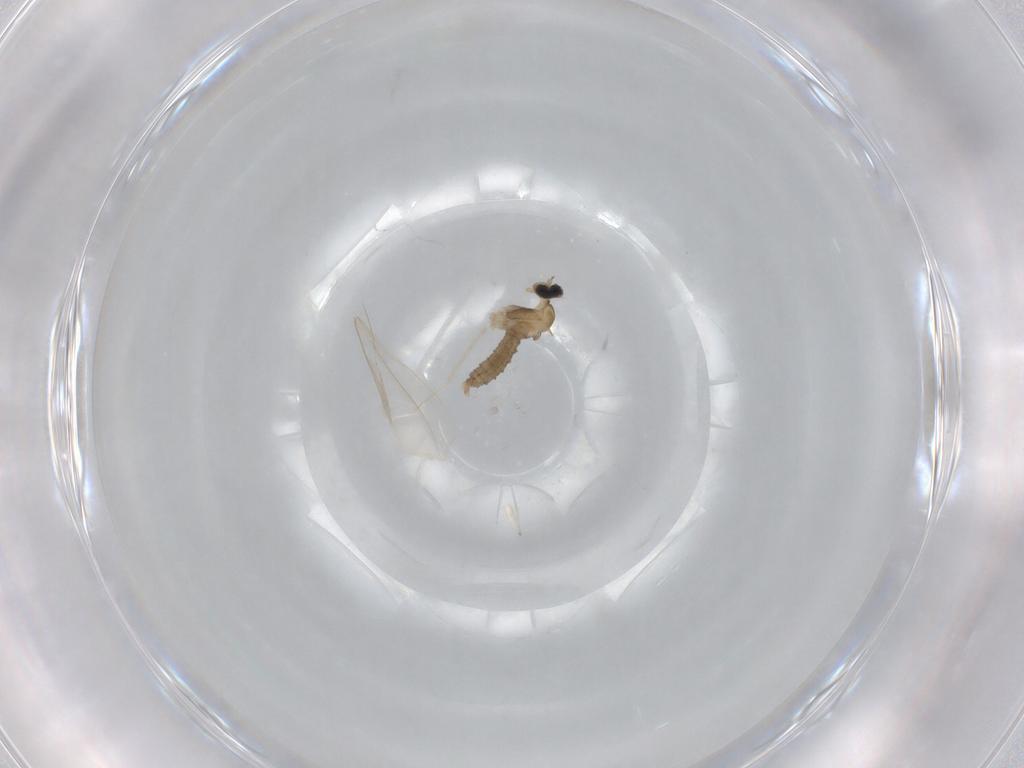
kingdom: Animalia
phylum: Arthropoda
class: Insecta
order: Diptera
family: Cecidomyiidae
